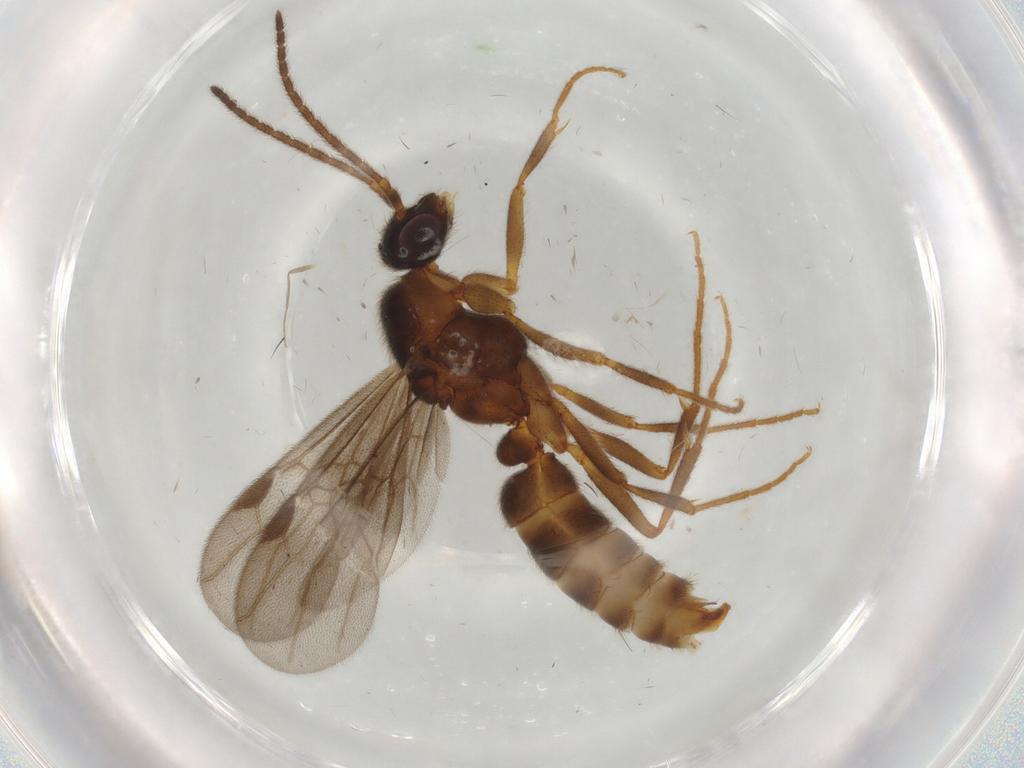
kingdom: Animalia
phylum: Arthropoda
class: Insecta
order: Hymenoptera
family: Formicidae
